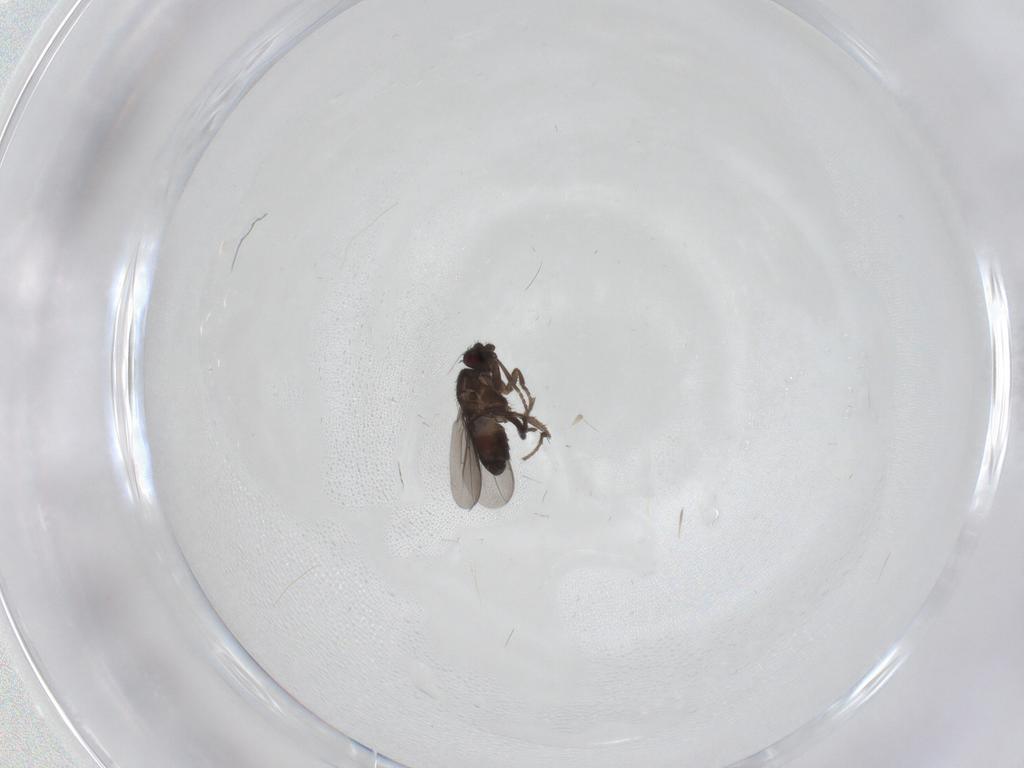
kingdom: Animalia
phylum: Arthropoda
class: Insecta
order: Diptera
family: Sphaeroceridae
